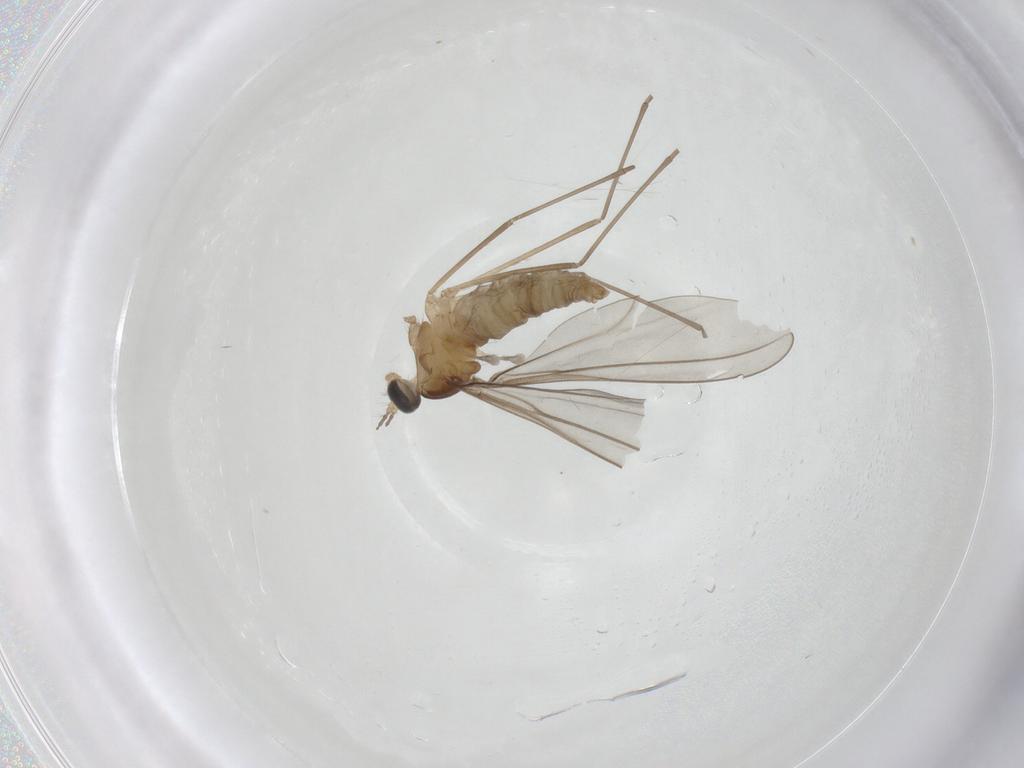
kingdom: Animalia
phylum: Arthropoda
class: Insecta
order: Diptera
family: Cecidomyiidae
